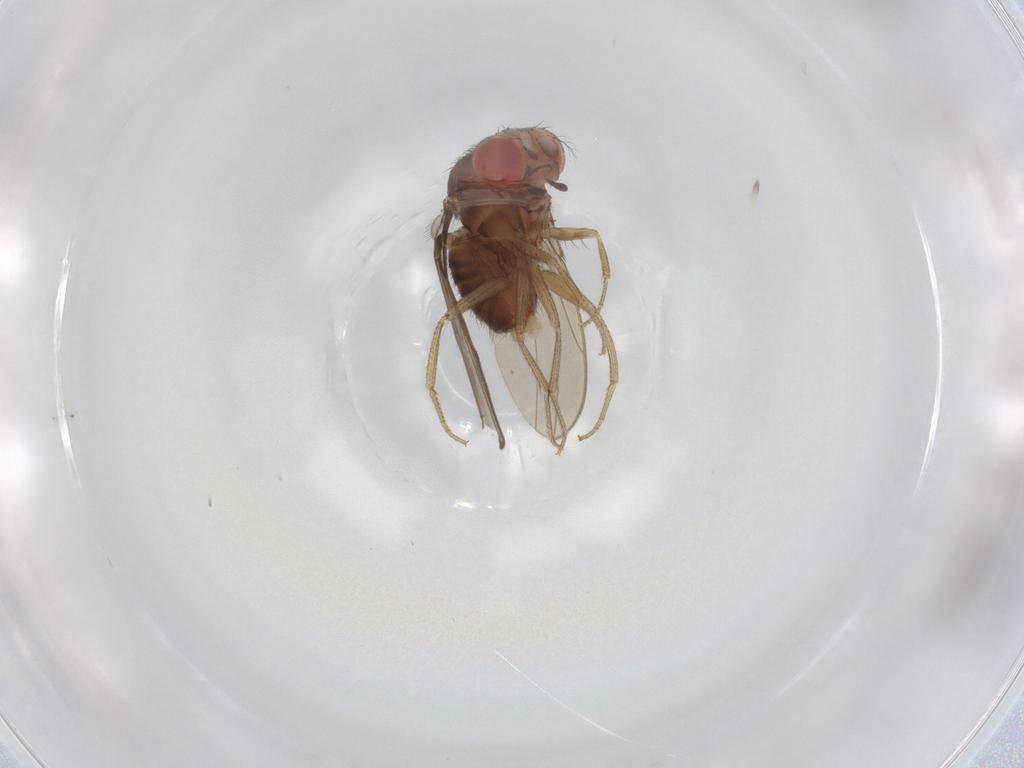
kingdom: Animalia
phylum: Arthropoda
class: Insecta
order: Diptera
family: Drosophilidae
